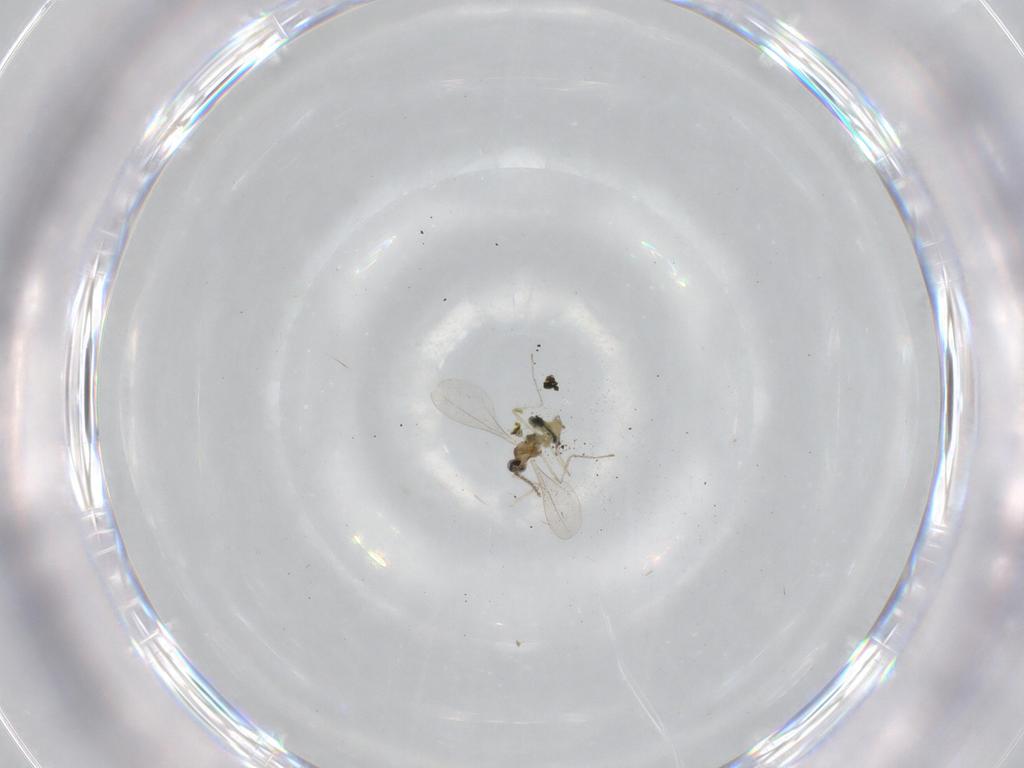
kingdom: Animalia
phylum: Arthropoda
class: Insecta
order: Diptera
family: Cecidomyiidae
